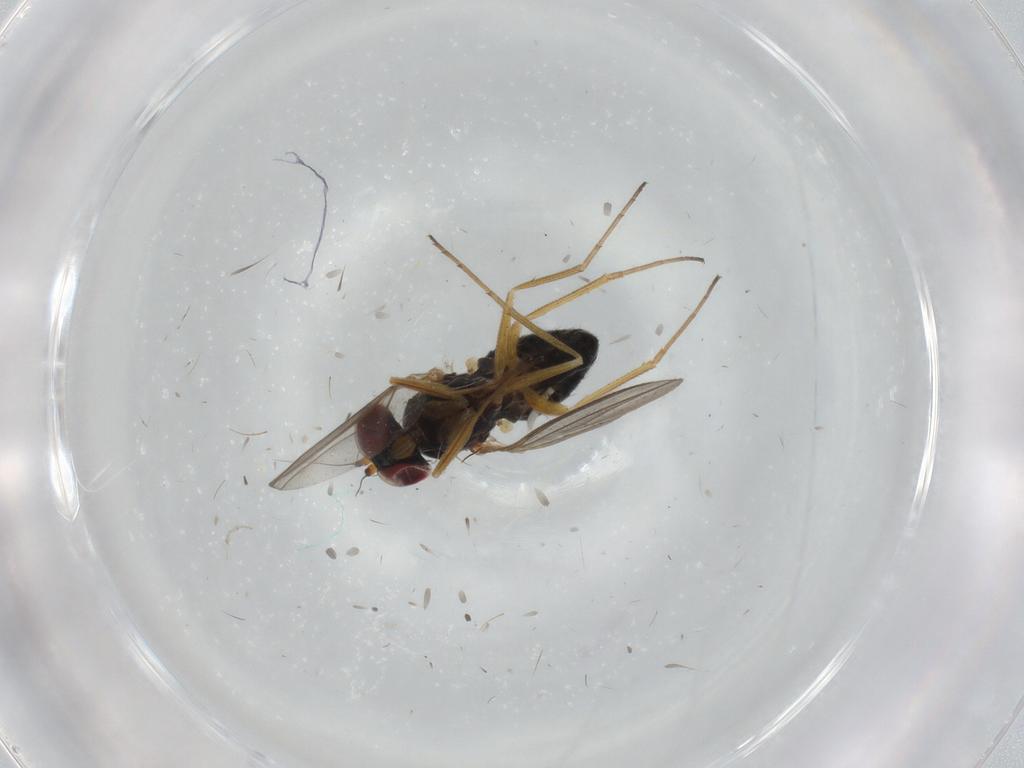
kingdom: Animalia
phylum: Arthropoda
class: Insecta
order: Diptera
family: Dolichopodidae
